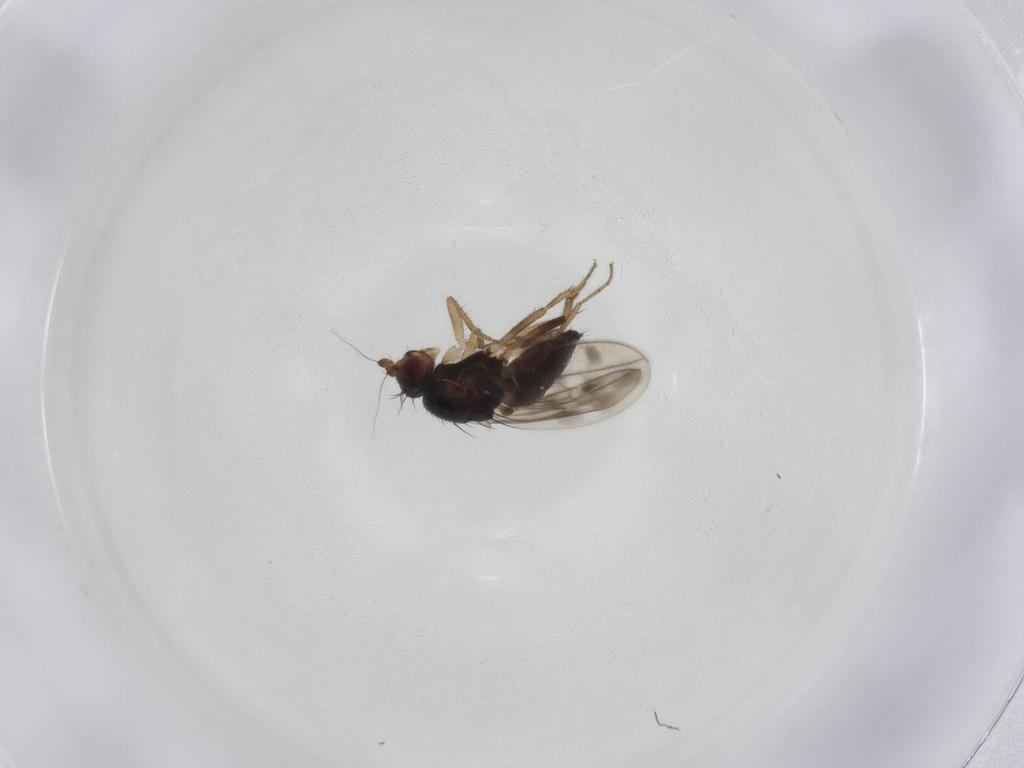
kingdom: Animalia
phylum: Arthropoda
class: Insecta
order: Diptera
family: Sphaeroceridae
